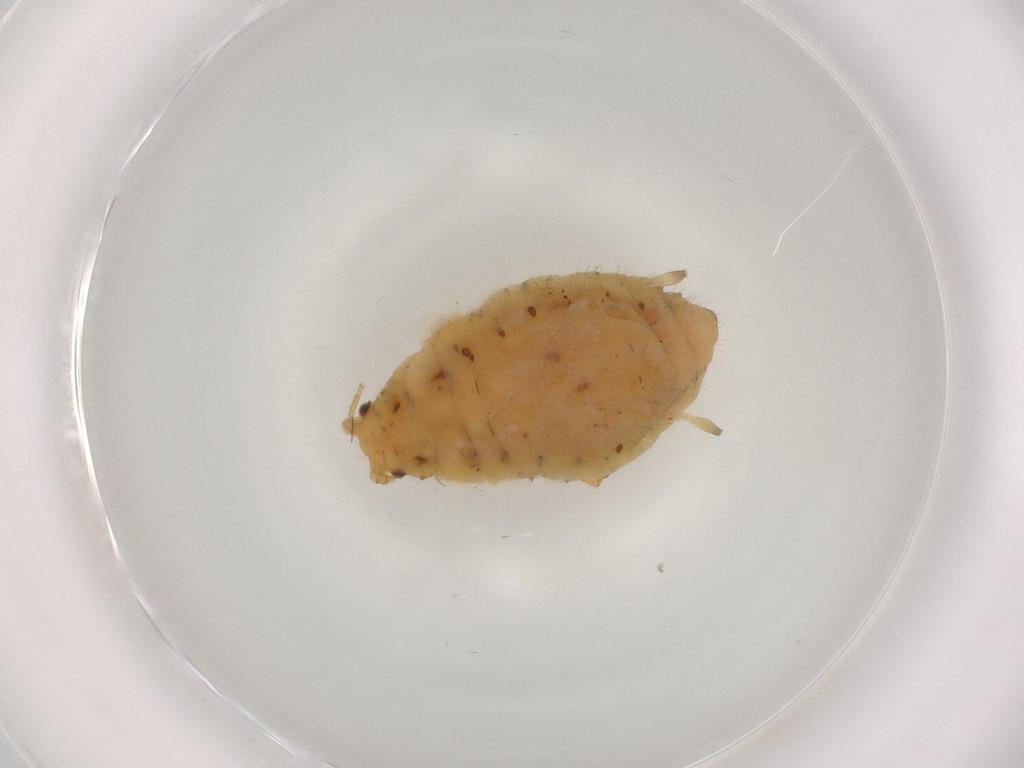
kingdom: Animalia
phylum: Arthropoda
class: Insecta
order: Hemiptera
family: Aphididae
